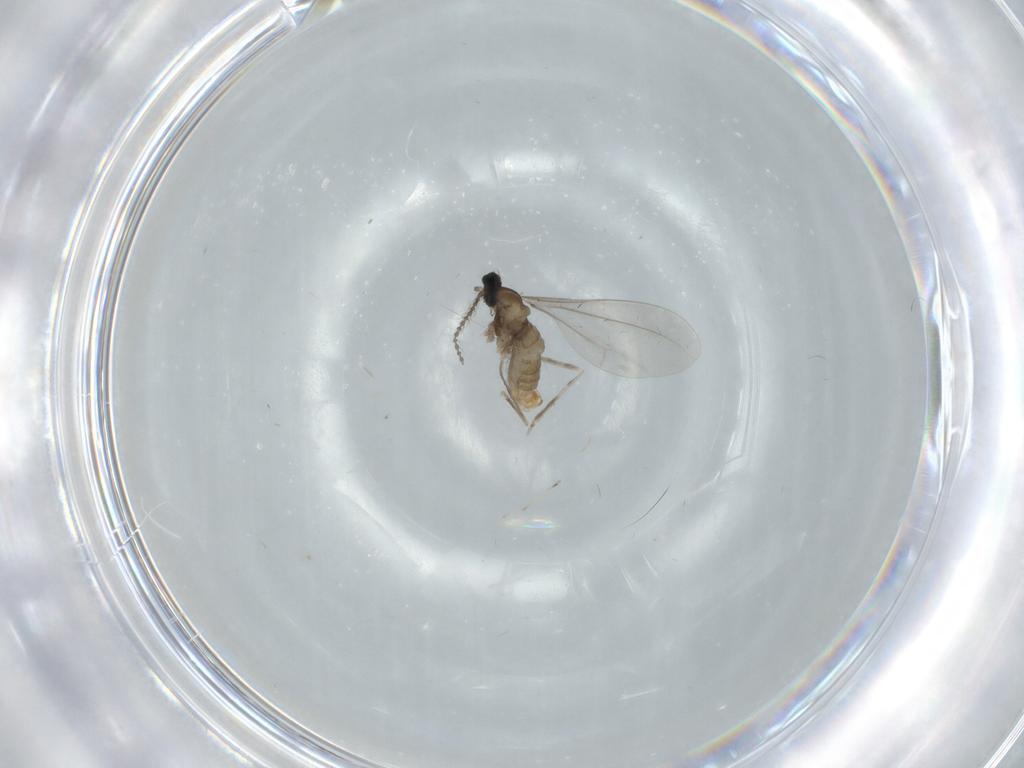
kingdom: Animalia
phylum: Arthropoda
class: Insecta
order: Diptera
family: Cecidomyiidae
